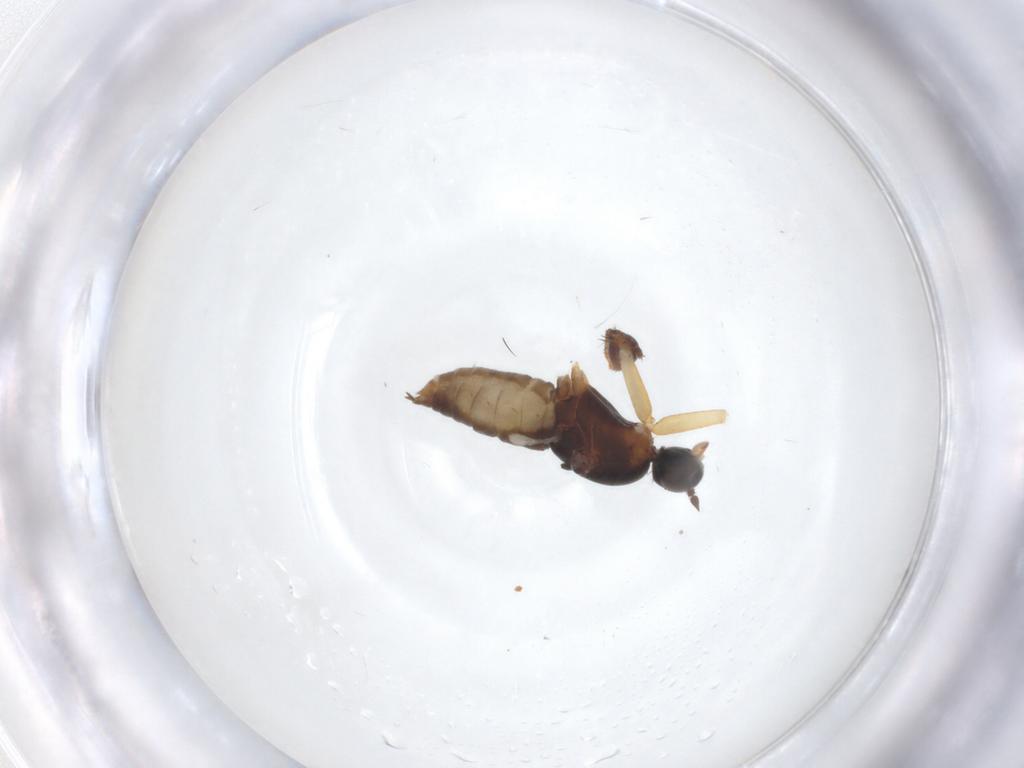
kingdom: Animalia
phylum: Arthropoda
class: Insecta
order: Diptera
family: Empididae
